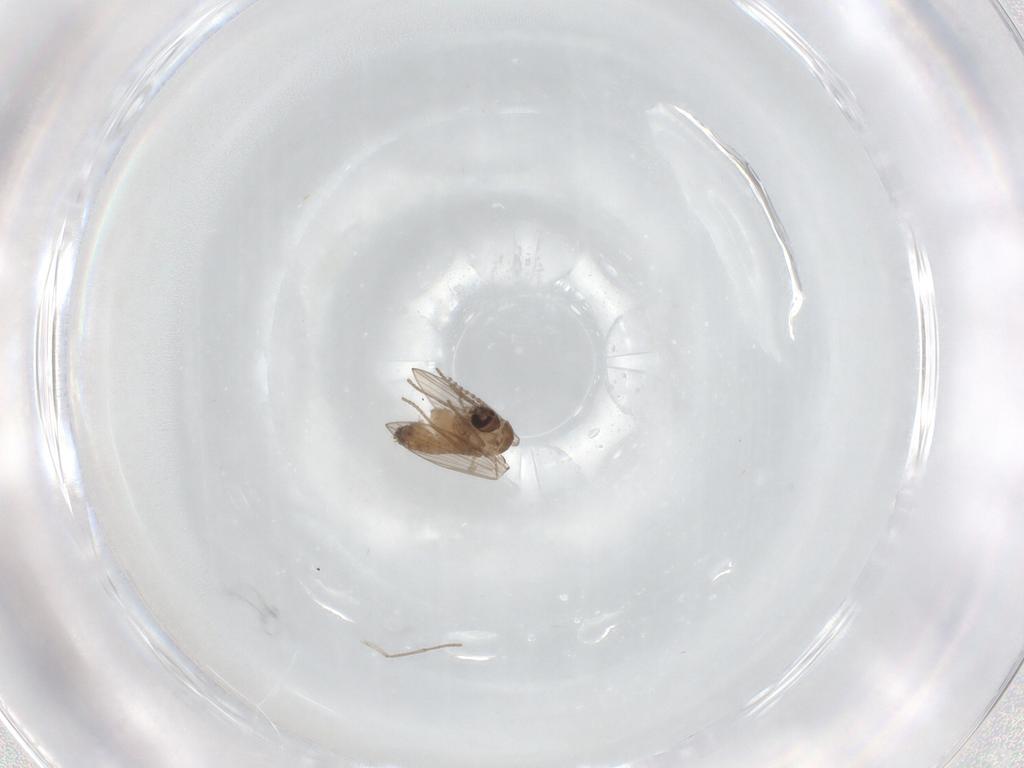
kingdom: Animalia
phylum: Arthropoda
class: Insecta
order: Diptera
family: Psychodidae
